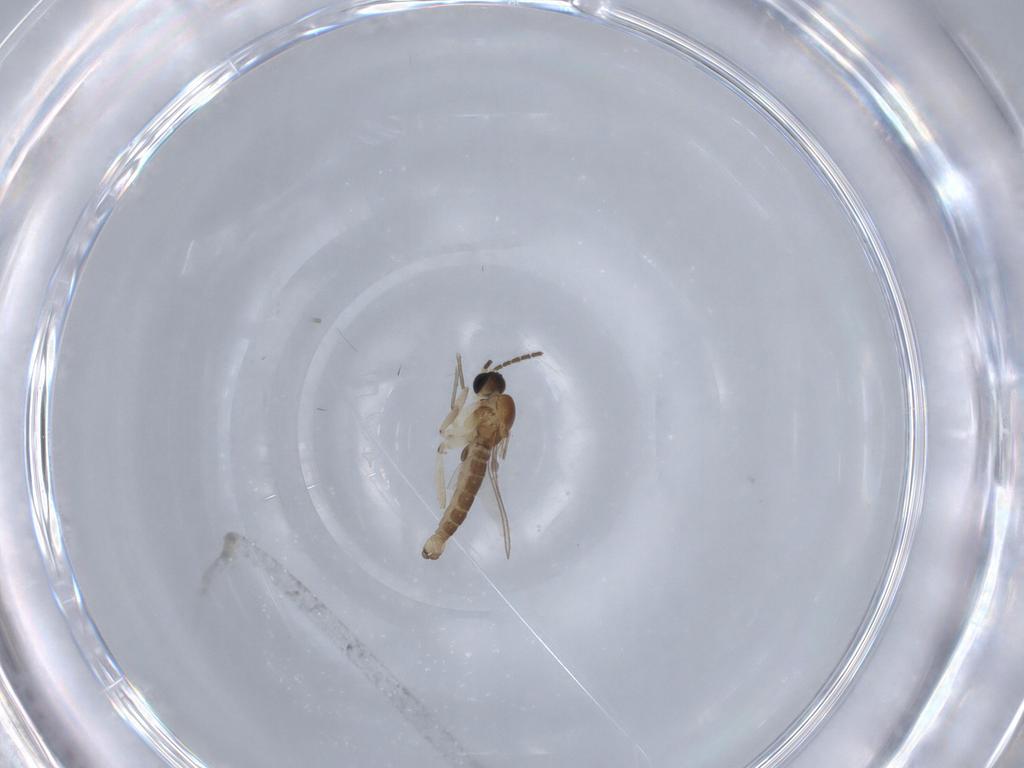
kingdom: Animalia
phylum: Arthropoda
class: Insecta
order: Diptera
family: Sciaridae
